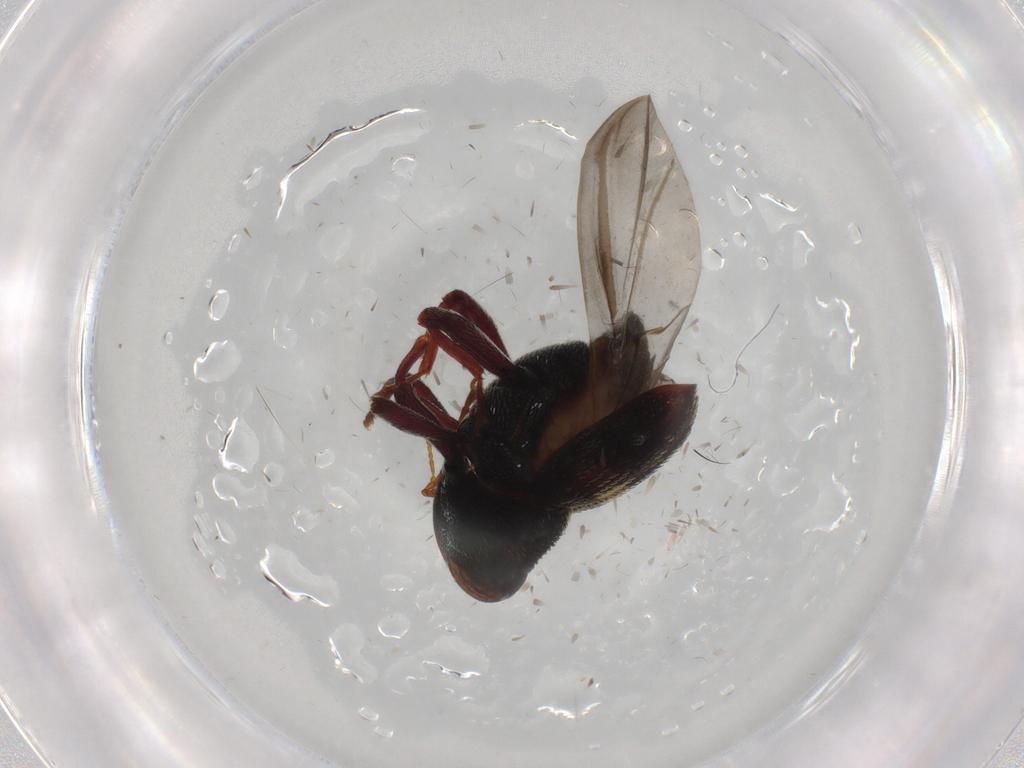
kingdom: Animalia
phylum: Arthropoda
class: Insecta
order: Coleoptera
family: Curculionidae
